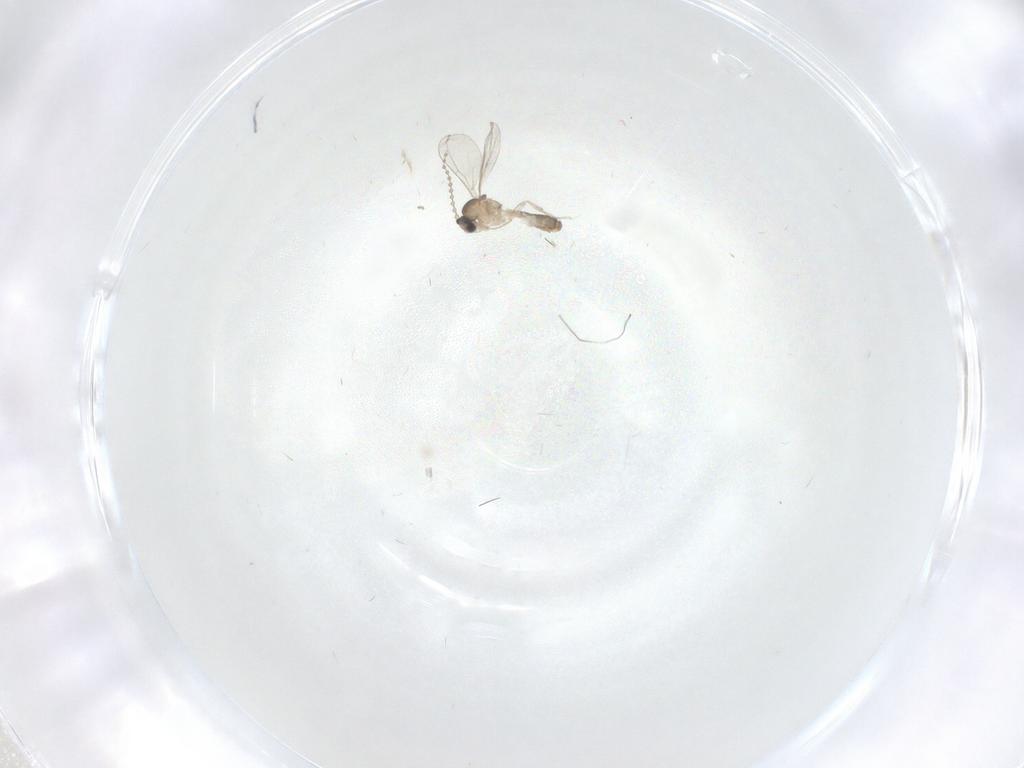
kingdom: Animalia
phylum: Arthropoda
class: Insecta
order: Diptera
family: Cecidomyiidae
